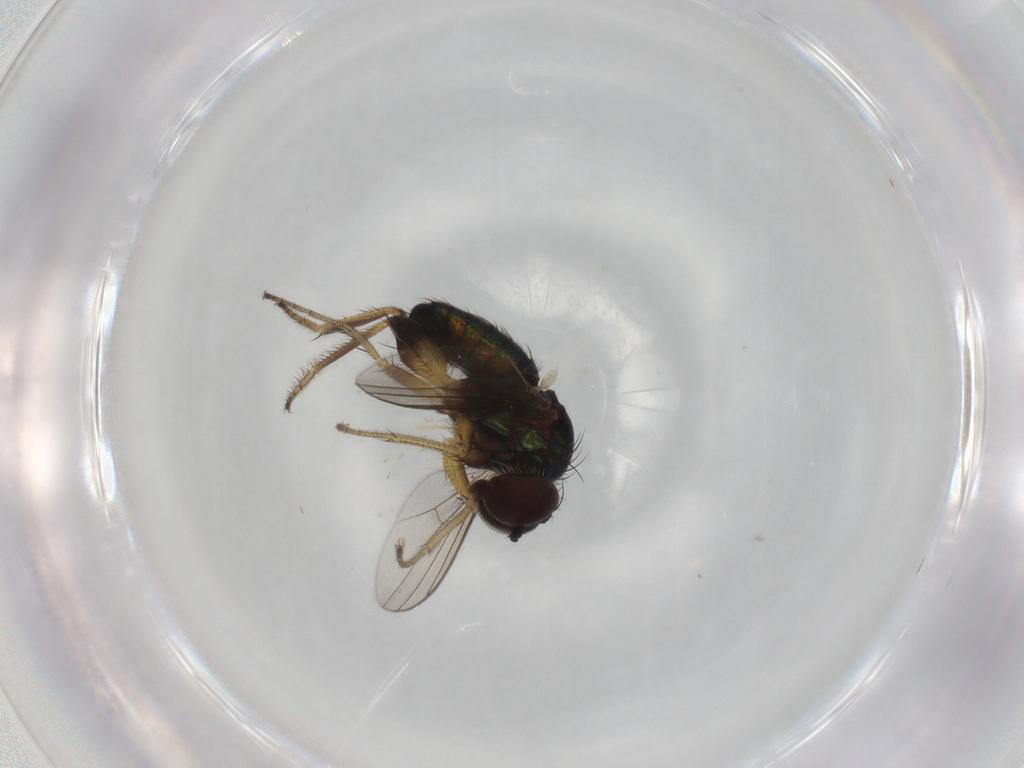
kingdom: Animalia
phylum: Arthropoda
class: Insecta
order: Diptera
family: Dolichopodidae
